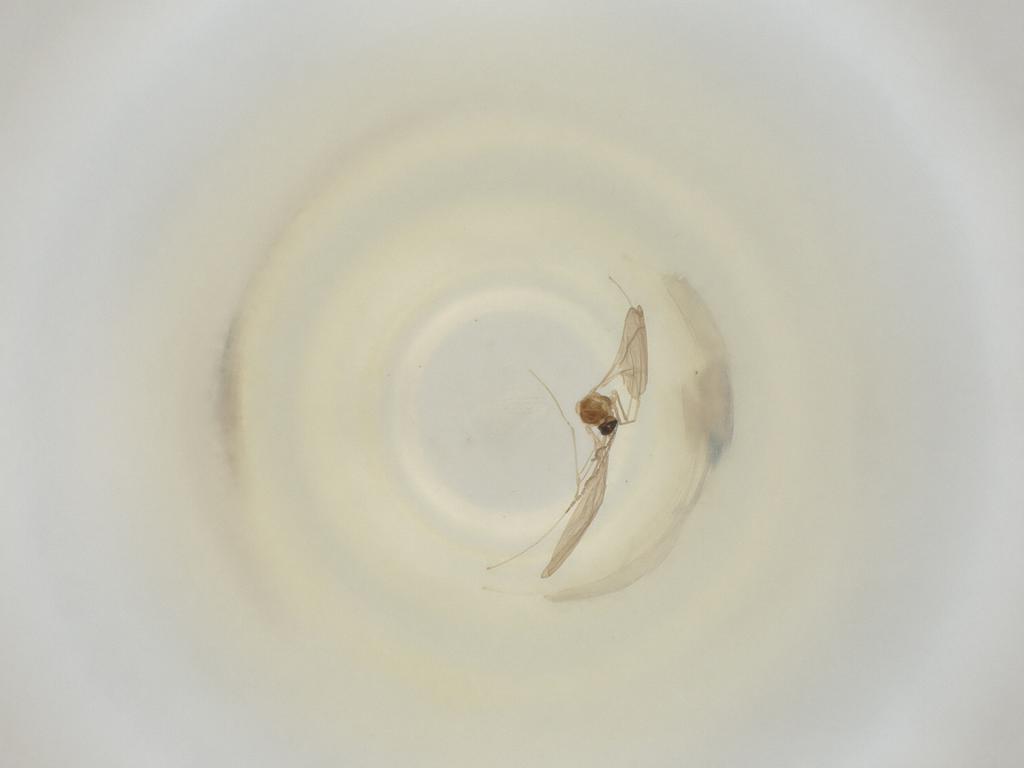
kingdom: Animalia
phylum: Arthropoda
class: Insecta
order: Diptera
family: Cecidomyiidae
